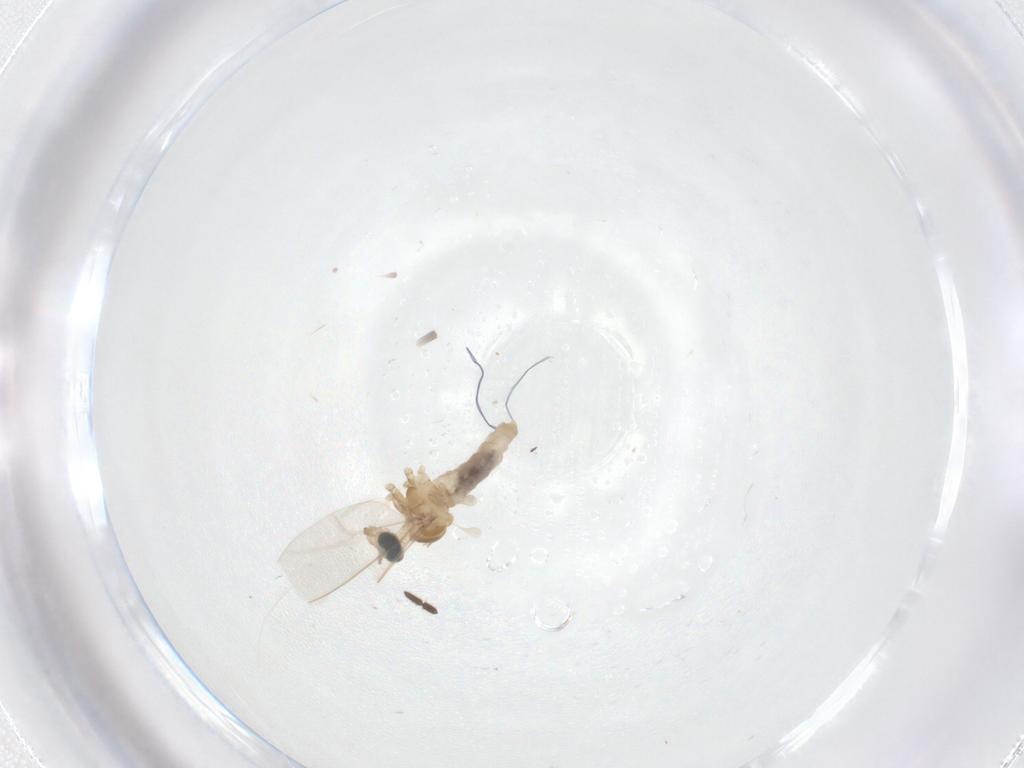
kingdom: Animalia
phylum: Arthropoda
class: Insecta
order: Diptera
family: Cecidomyiidae
